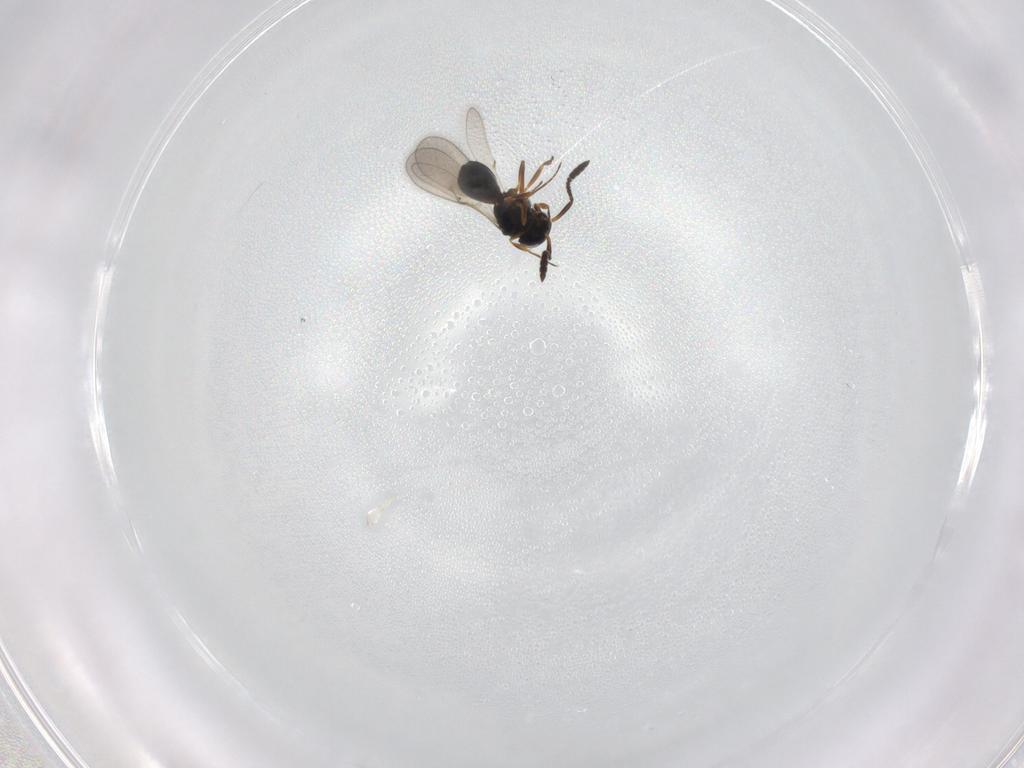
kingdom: Animalia
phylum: Arthropoda
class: Insecta
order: Hymenoptera
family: Scelionidae
